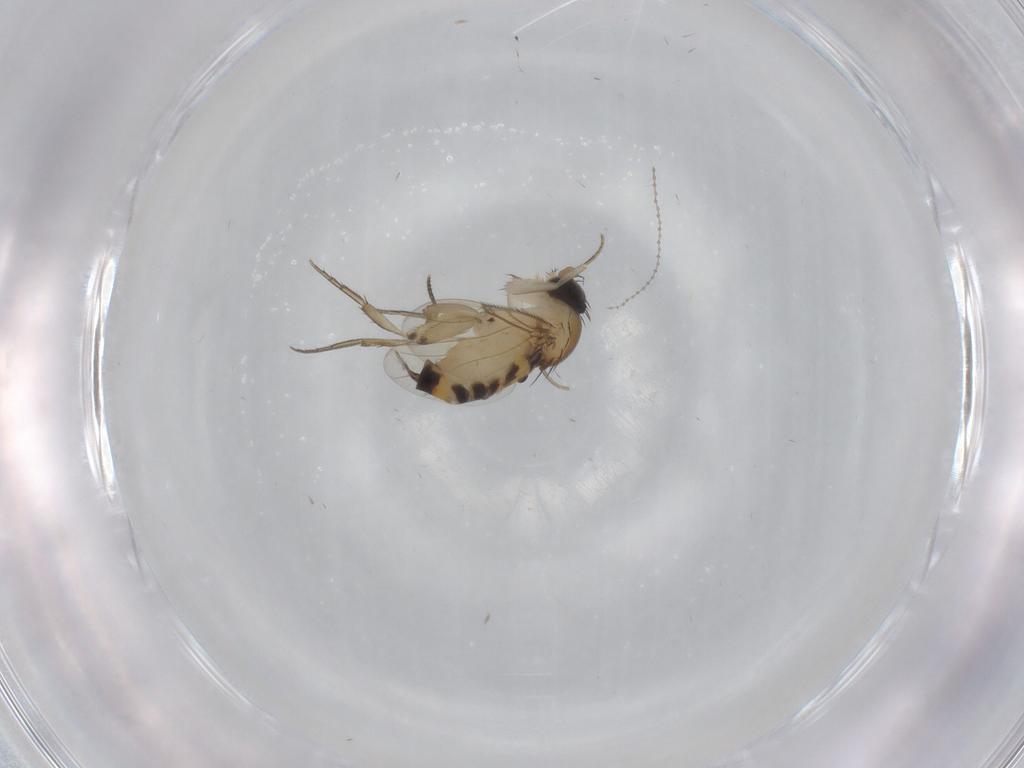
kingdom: Animalia
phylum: Arthropoda
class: Insecta
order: Diptera
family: Phoridae
